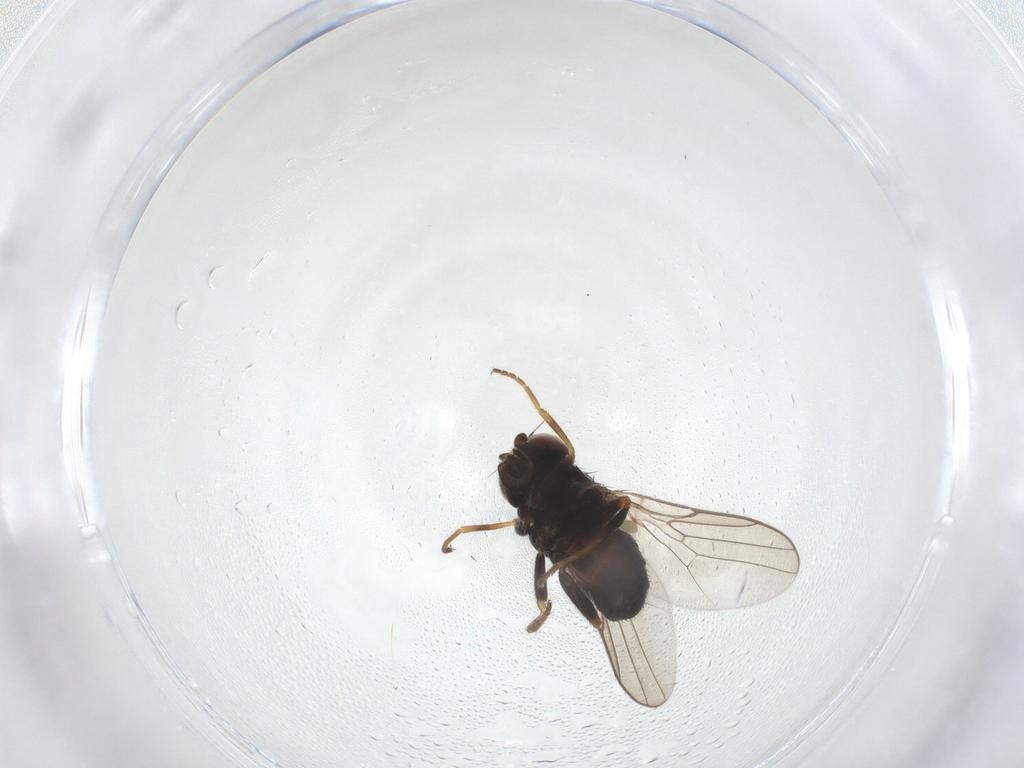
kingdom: Animalia
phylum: Arthropoda
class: Insecta
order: Diptera
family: Chloropidae
